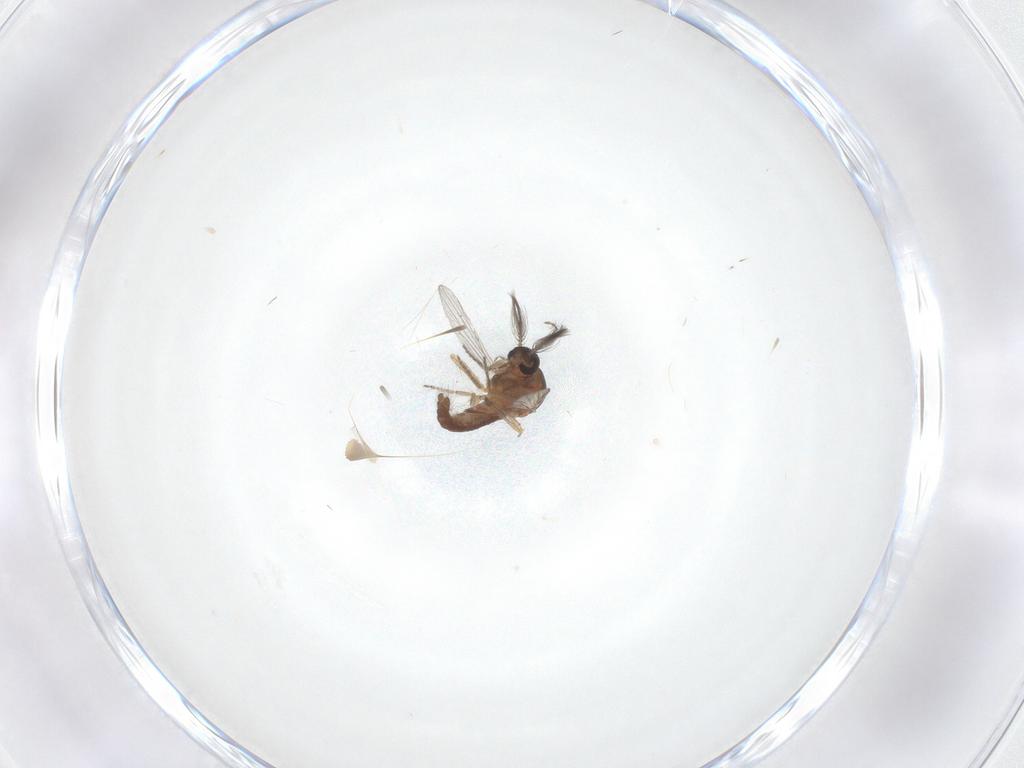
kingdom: Animalia
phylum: Arthropoda
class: Insecta
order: Diptera
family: Ceratopogonidae
